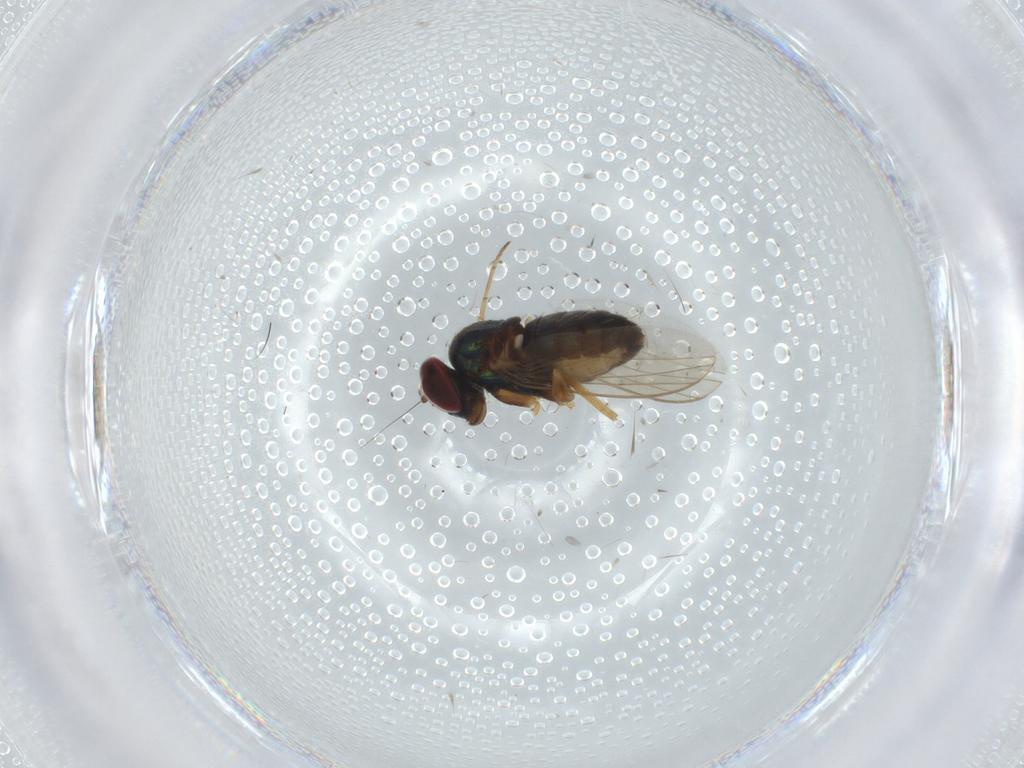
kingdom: Animalia
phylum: Arthropoda
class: Insecta
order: Diptera
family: Dolichopodidae
